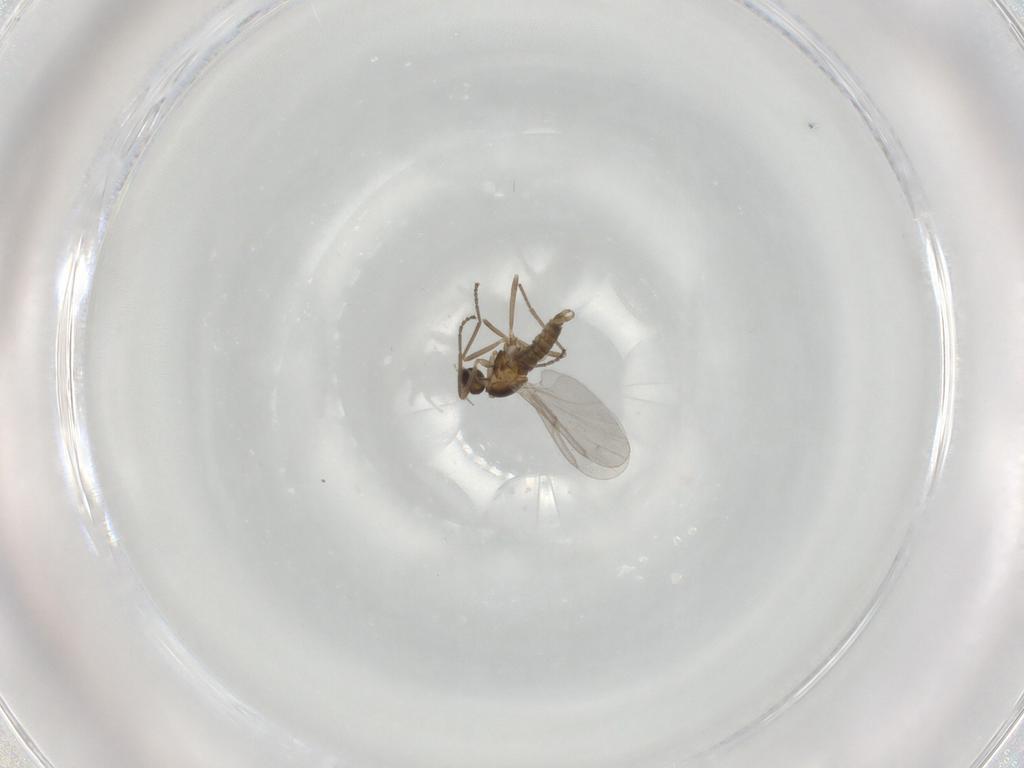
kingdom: Animalia
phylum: Arthropoda
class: Insecta
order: Diptera
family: Cecidomyiidae
